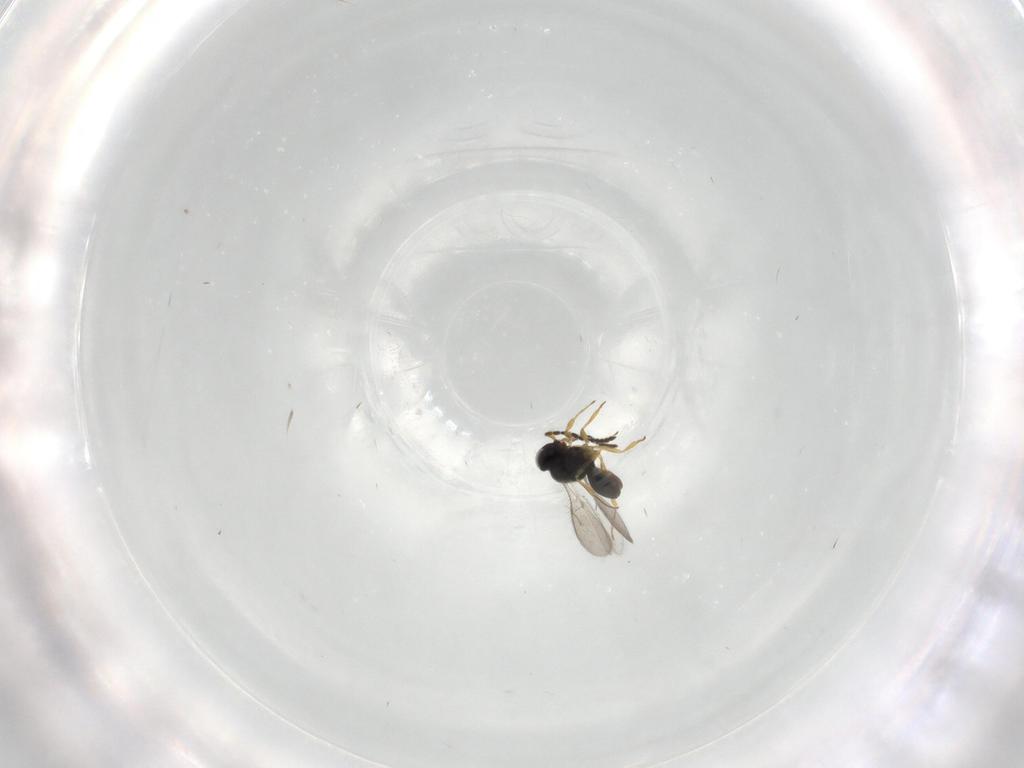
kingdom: Animalia
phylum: Arthropoda
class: Insecta
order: Hymenoptera
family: Scelionidae
